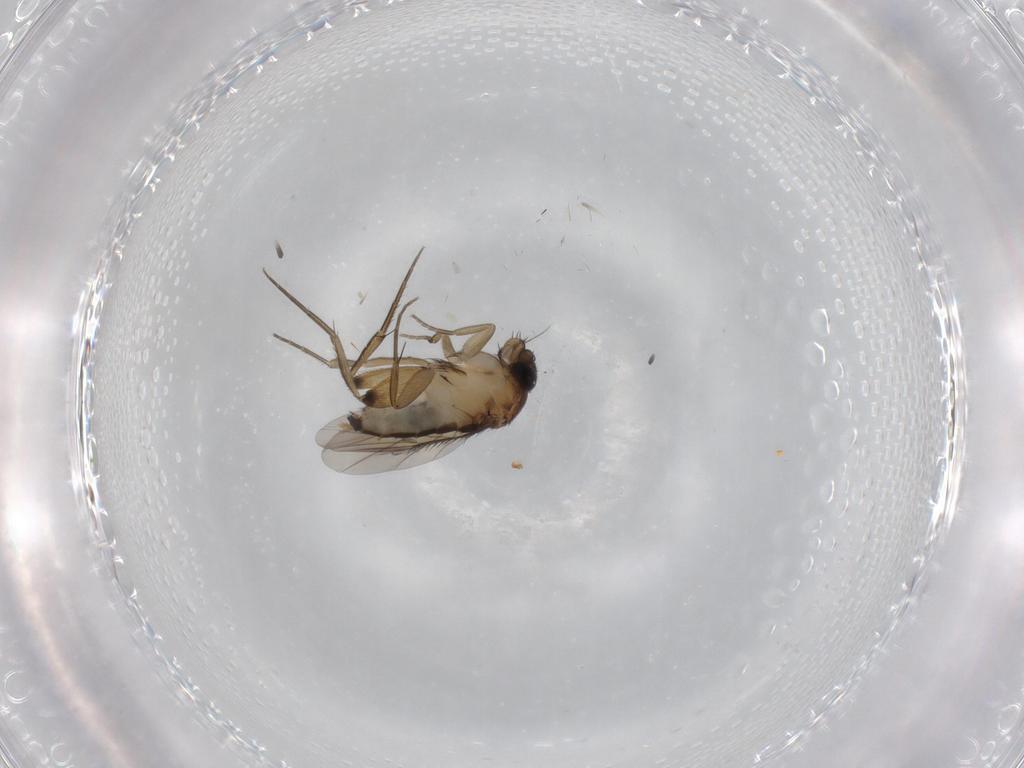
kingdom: Animalia
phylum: Arthropoda
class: Insecta
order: Diptera
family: Phoridae
